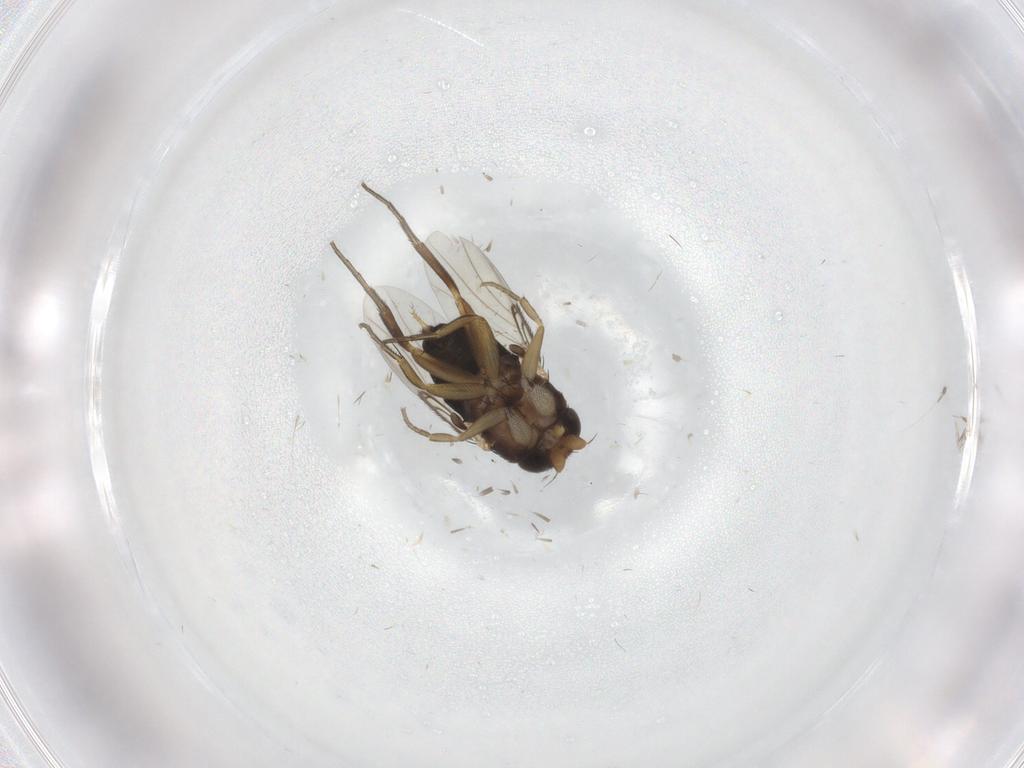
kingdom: Animalia
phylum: Arthropoda
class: Insecta
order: Diptera
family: Phoridae
